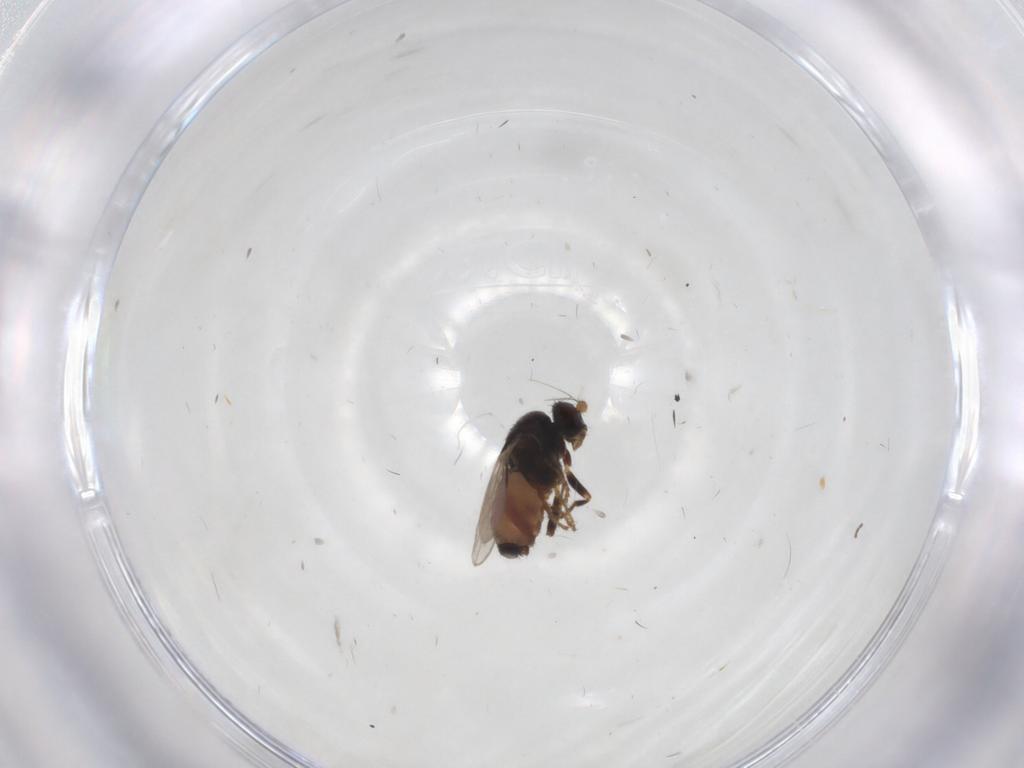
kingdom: Animalia
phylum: Arthropoda
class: Insecta
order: Diptera
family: Sphaeroceridae
